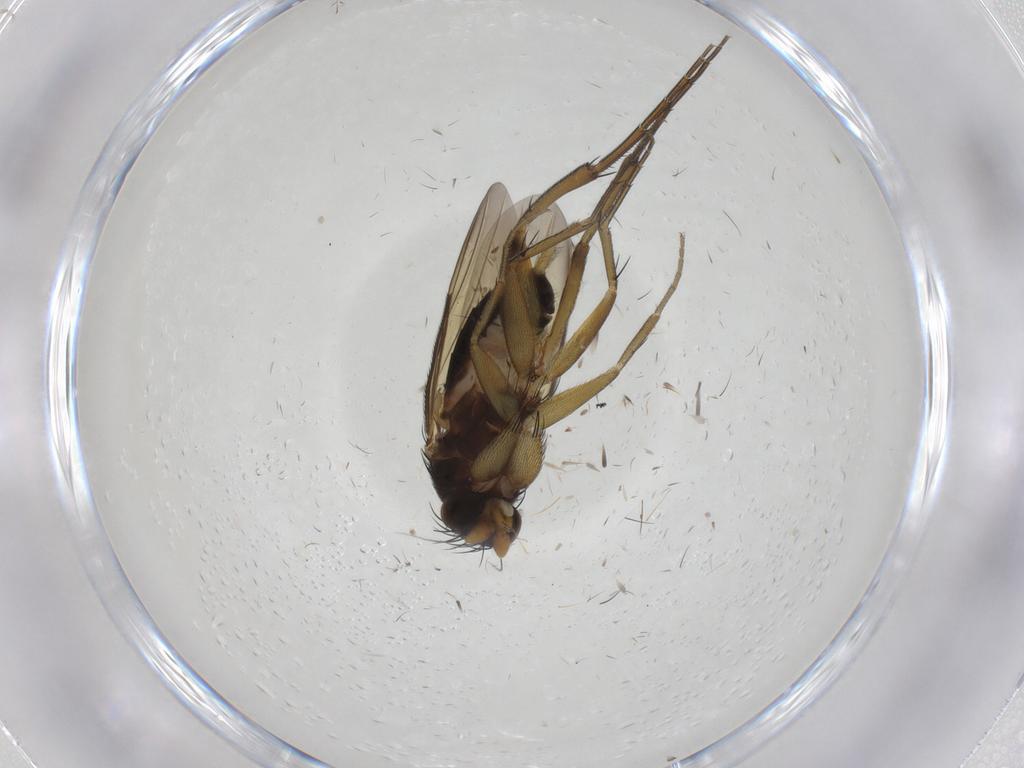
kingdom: Animalia
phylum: Arthropoda
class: Insecta
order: Diptera
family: Phoridae
